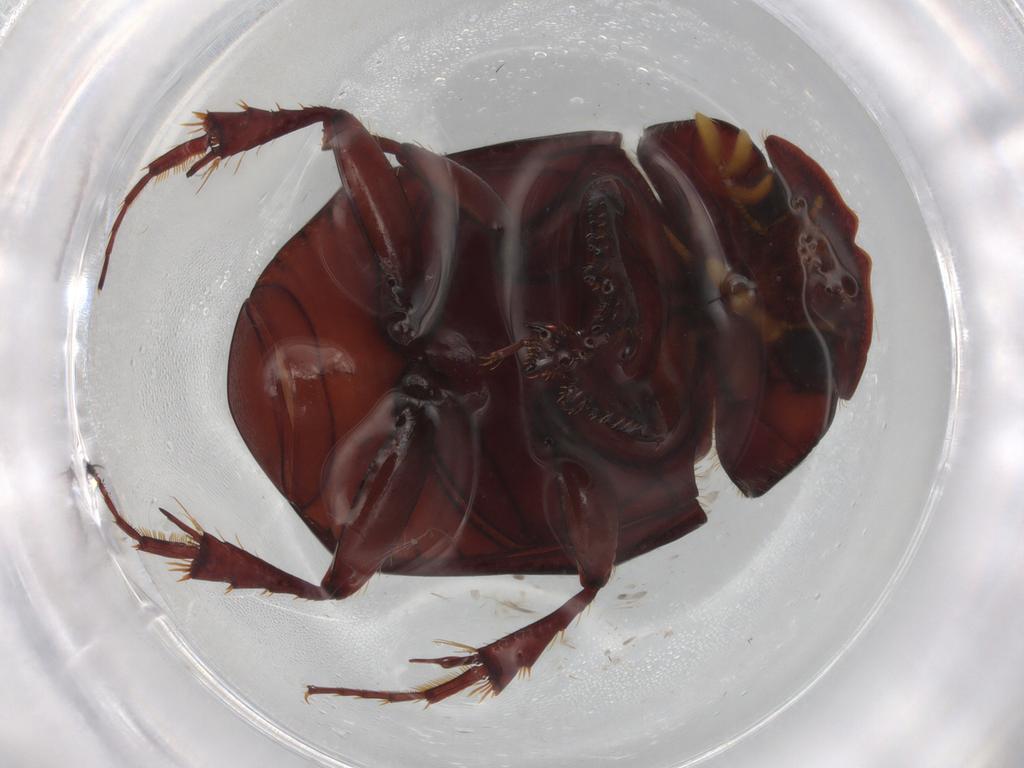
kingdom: Animalia
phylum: Arthropoda
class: Insecta
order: Coleoptera
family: Scarabaeidae
